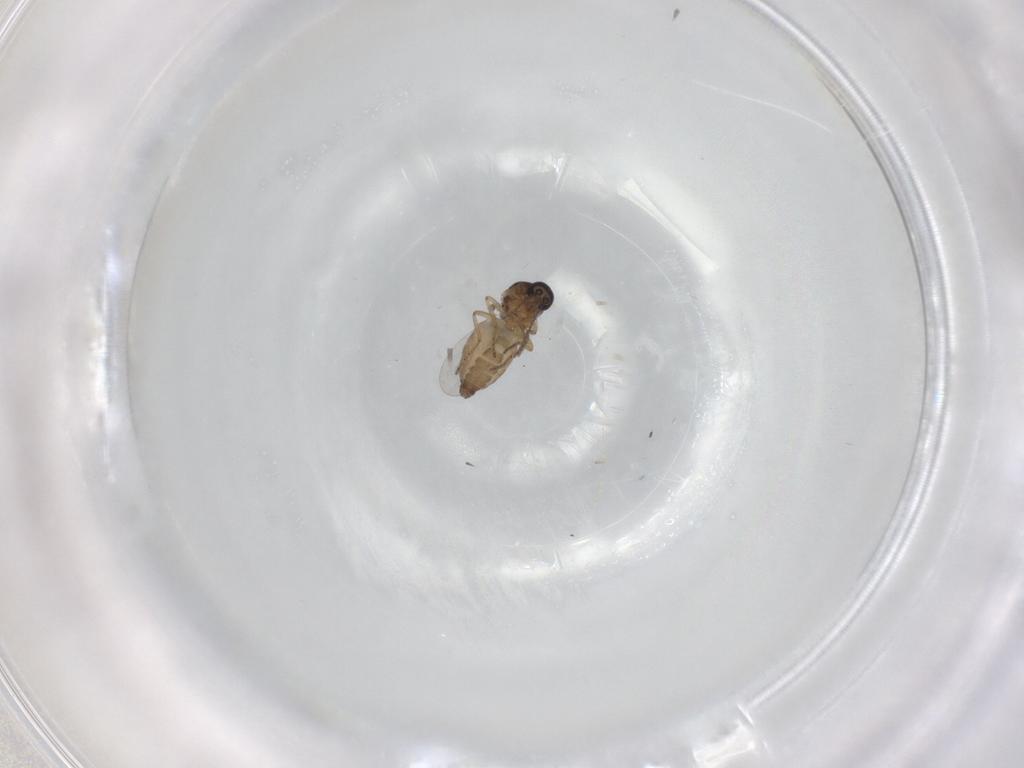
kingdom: Animalia
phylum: Arthropoda
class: Insecta
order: Diptera
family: Ceratopogonidae
